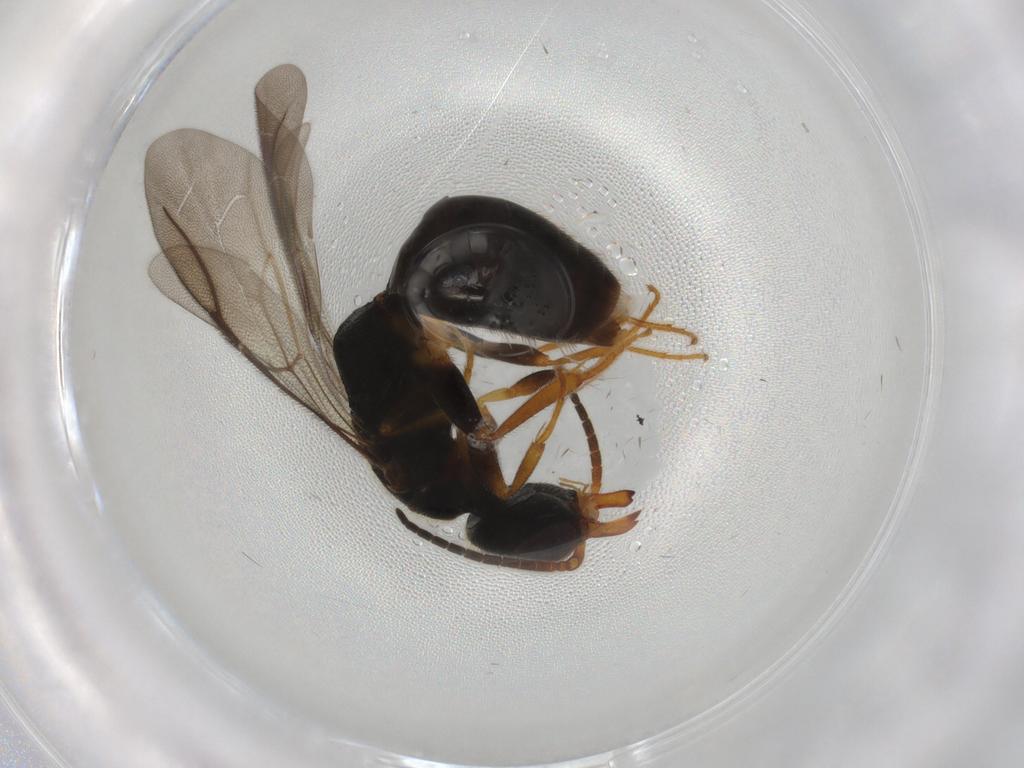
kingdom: Animalia
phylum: Arthropoda
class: Insecta
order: Hymenoptera
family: Bethylidae
